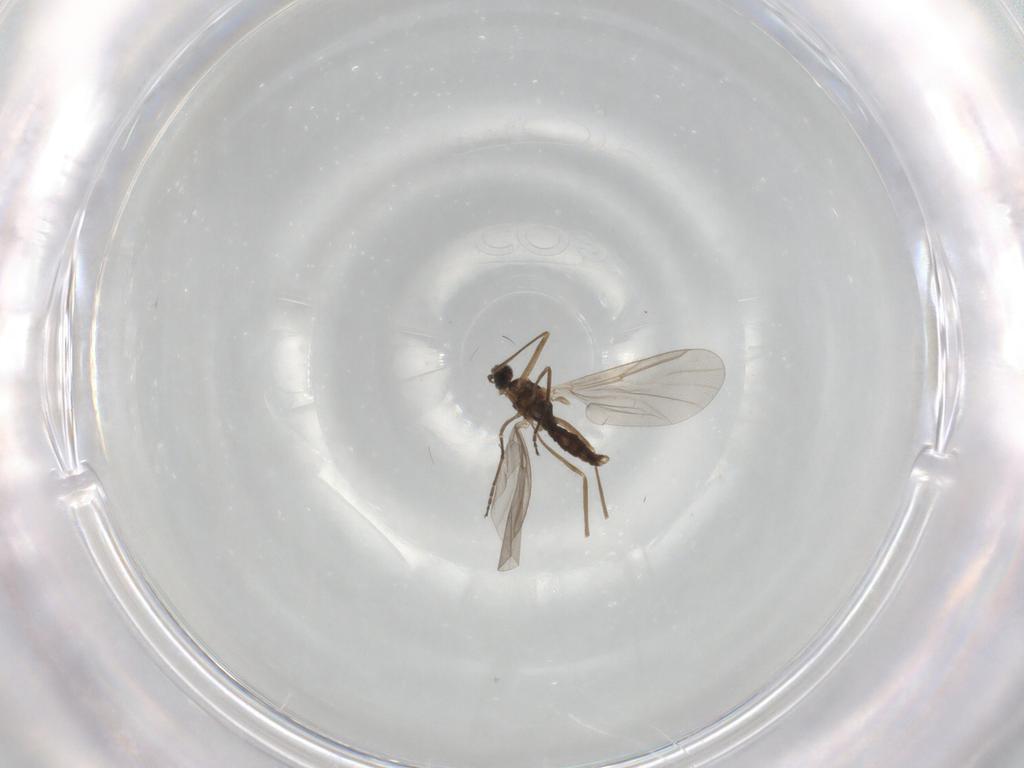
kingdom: Animalia
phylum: Arthropoda
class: Insecta
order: Diptera
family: Cecidomyiidae
